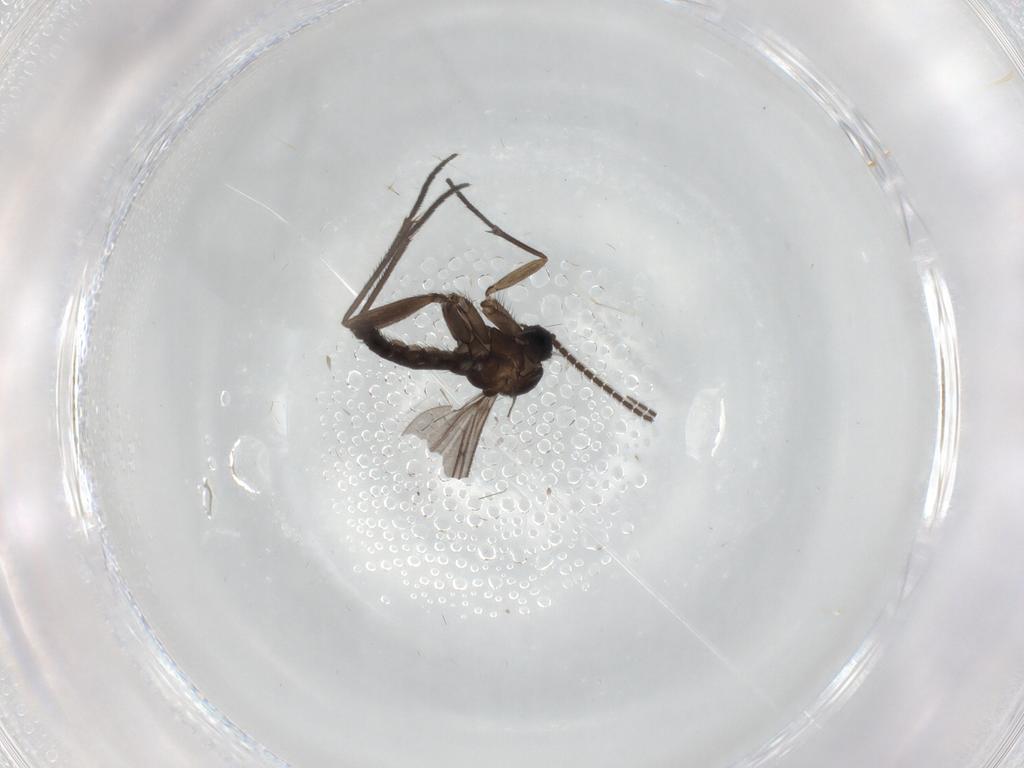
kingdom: Animalia
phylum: Arthropoda
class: Insecta
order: Diptera
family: Sciaridae
